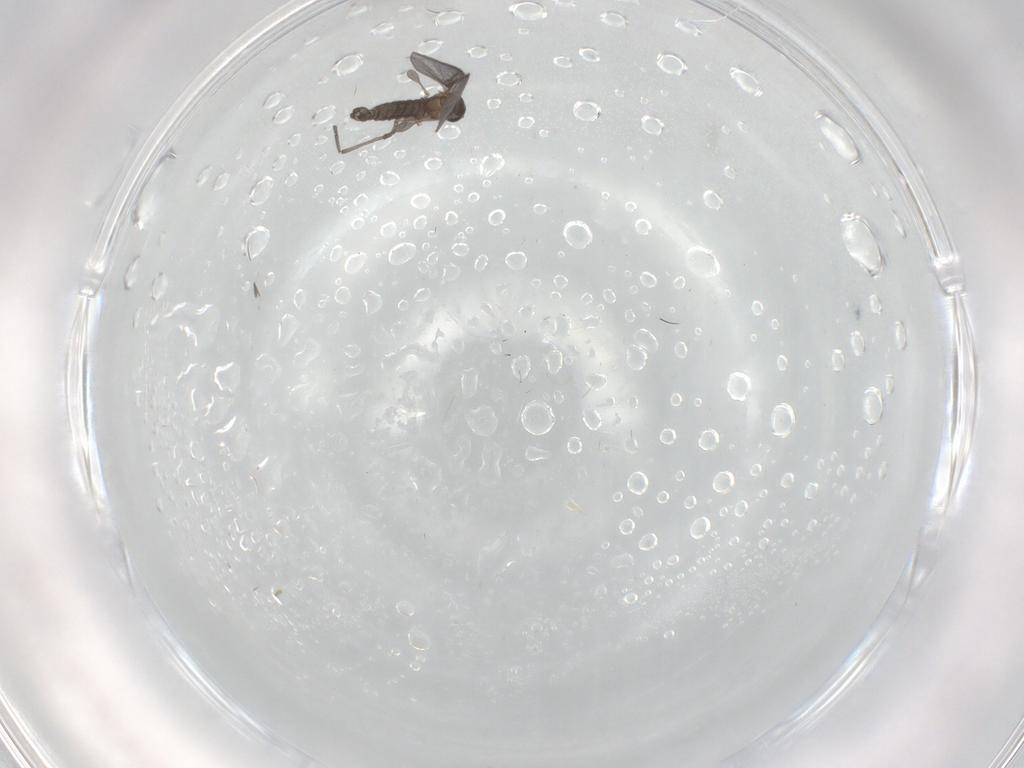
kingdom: Animalia
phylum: Arthropoda
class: Insecta
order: Diptera
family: Sciaridae
